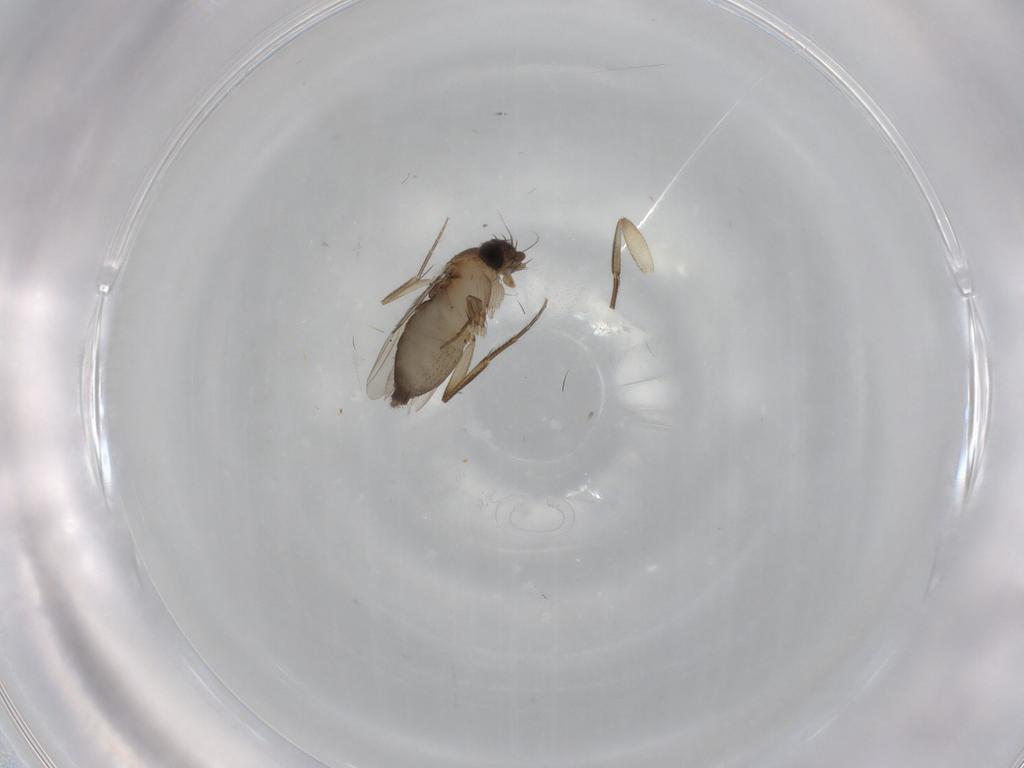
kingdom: Animalia
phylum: Arthropoda
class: Insecta
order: Diptera
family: Phoridae
